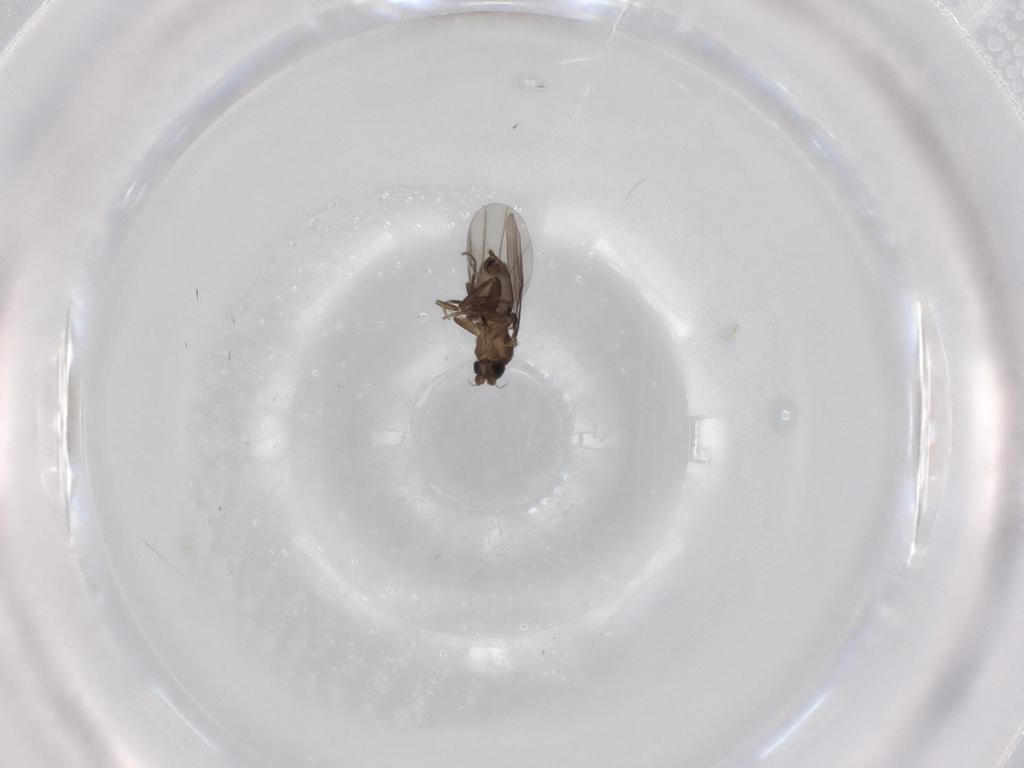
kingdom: Animalia
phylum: Arthropoda
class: Insecta
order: Diptera
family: Phoridae
